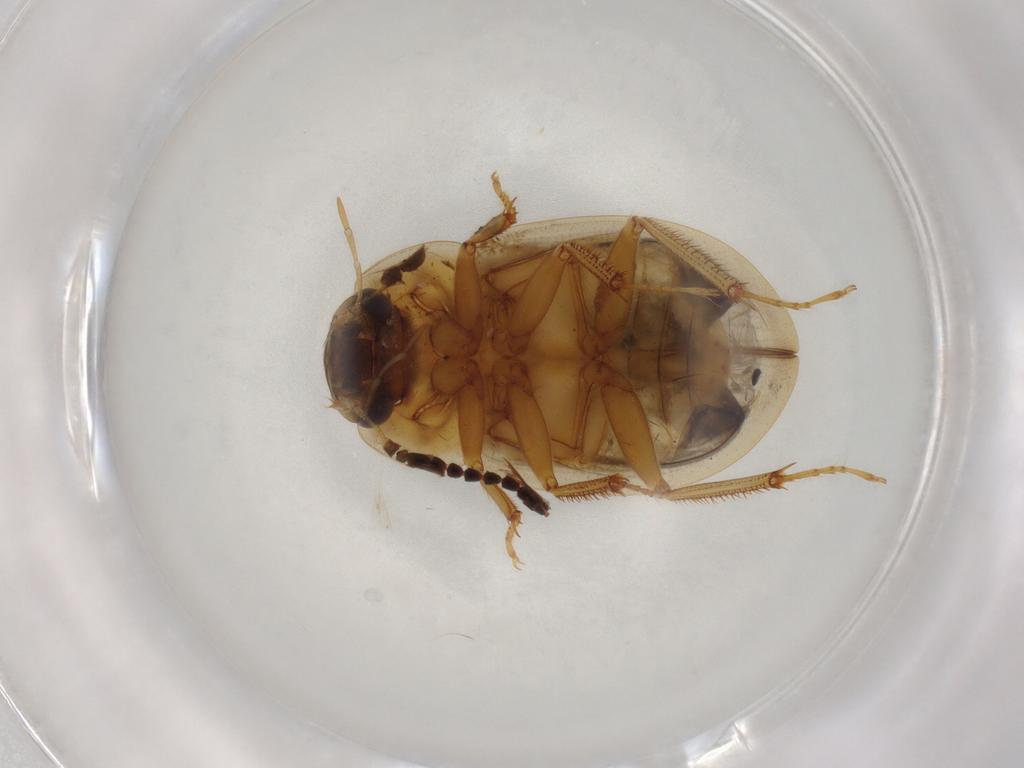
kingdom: Animalia
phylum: Arthropoda
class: Insecta
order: Coleoptera
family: Hydrophilidae
